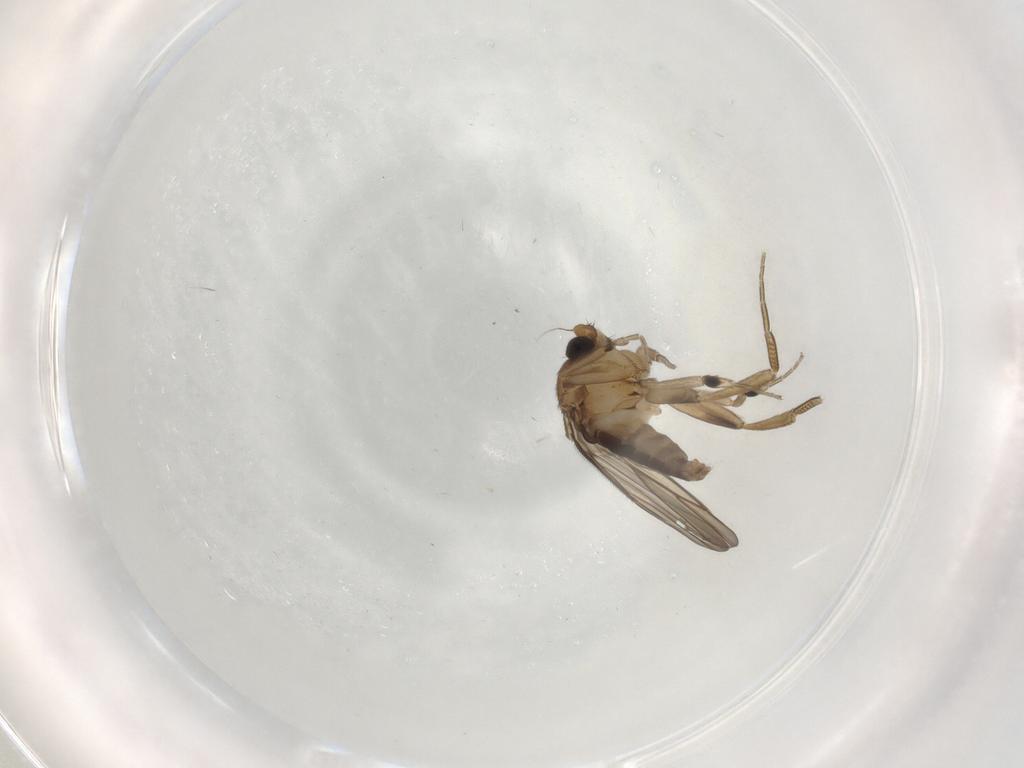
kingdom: Animalia
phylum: Arthropoda
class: Insecta
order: Diptera
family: Phoridae
